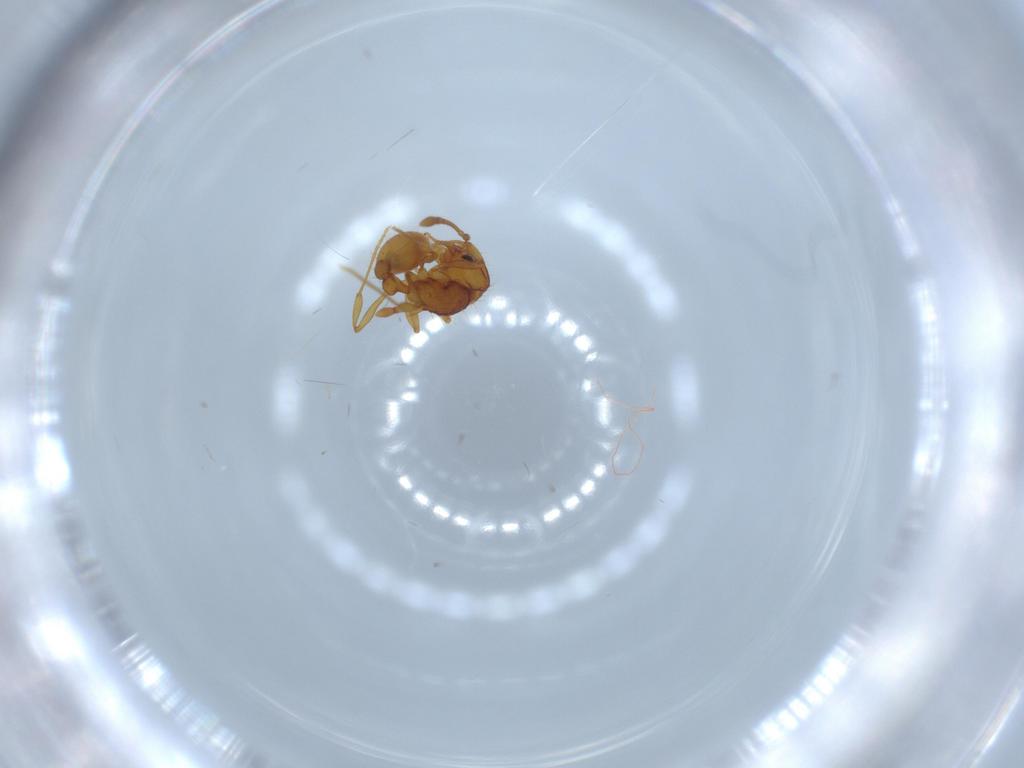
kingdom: Animalia
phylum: Arthropoda
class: Insecta
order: Hymenoptera
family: Formicidae
